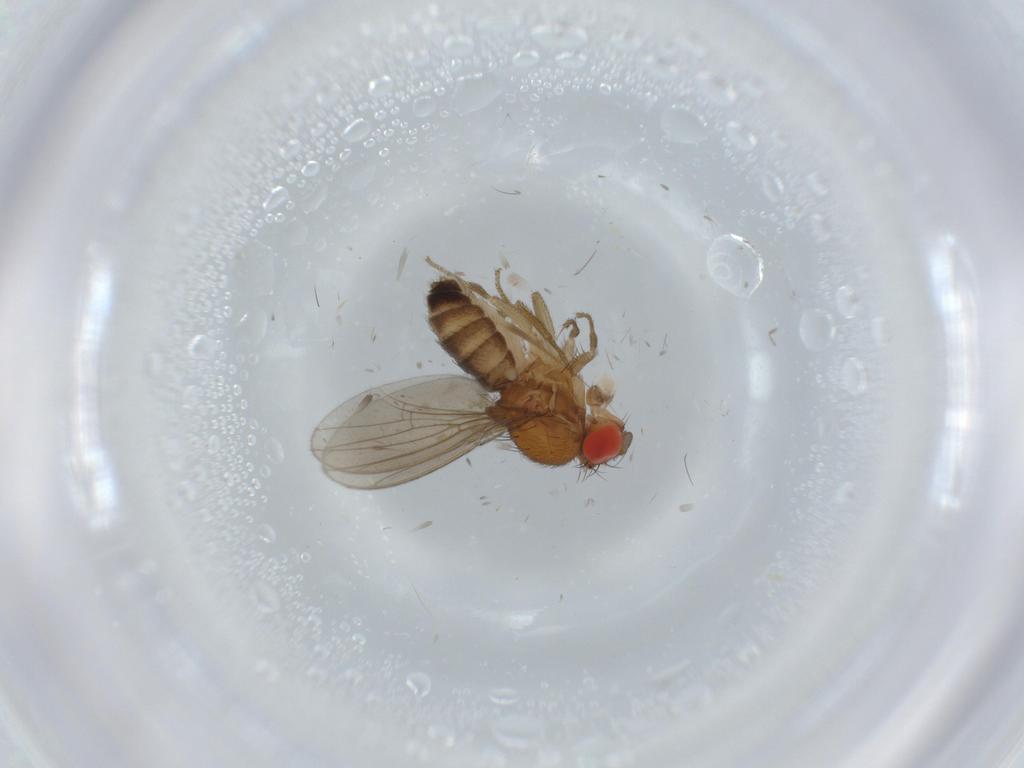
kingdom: Animalia
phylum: Arthropoda
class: Insecta
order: Diptera
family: Drosophilidae
